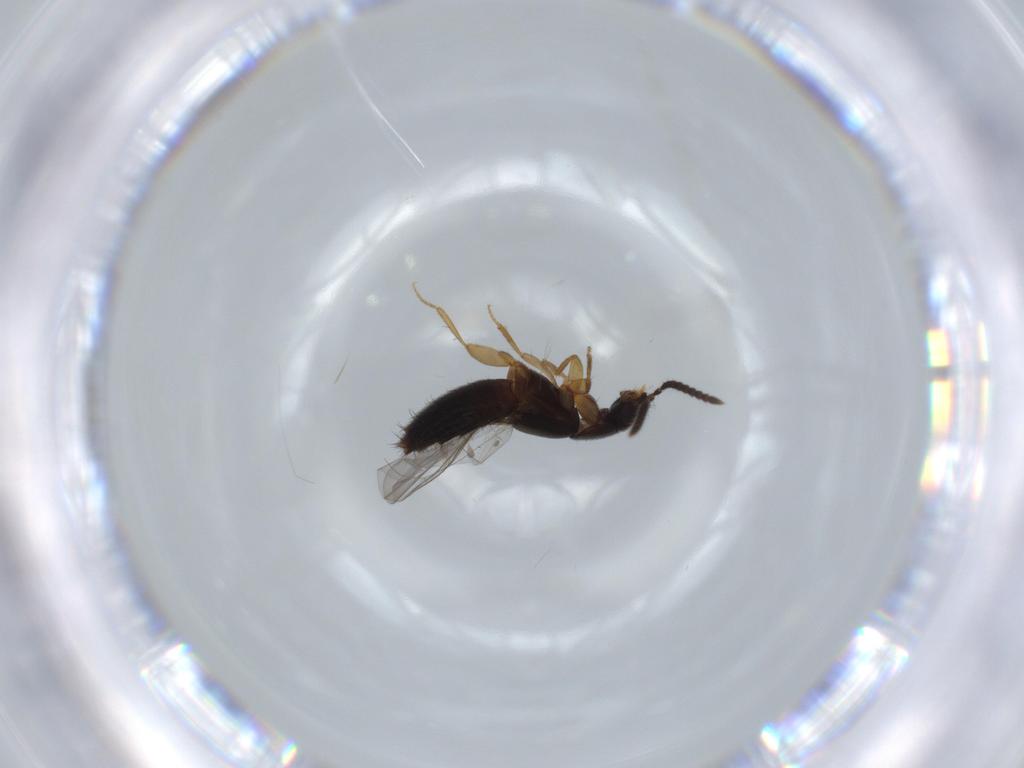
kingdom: Animalia
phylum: Arthropoda
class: Insecta
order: Coleoptera
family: Staphylinidae
